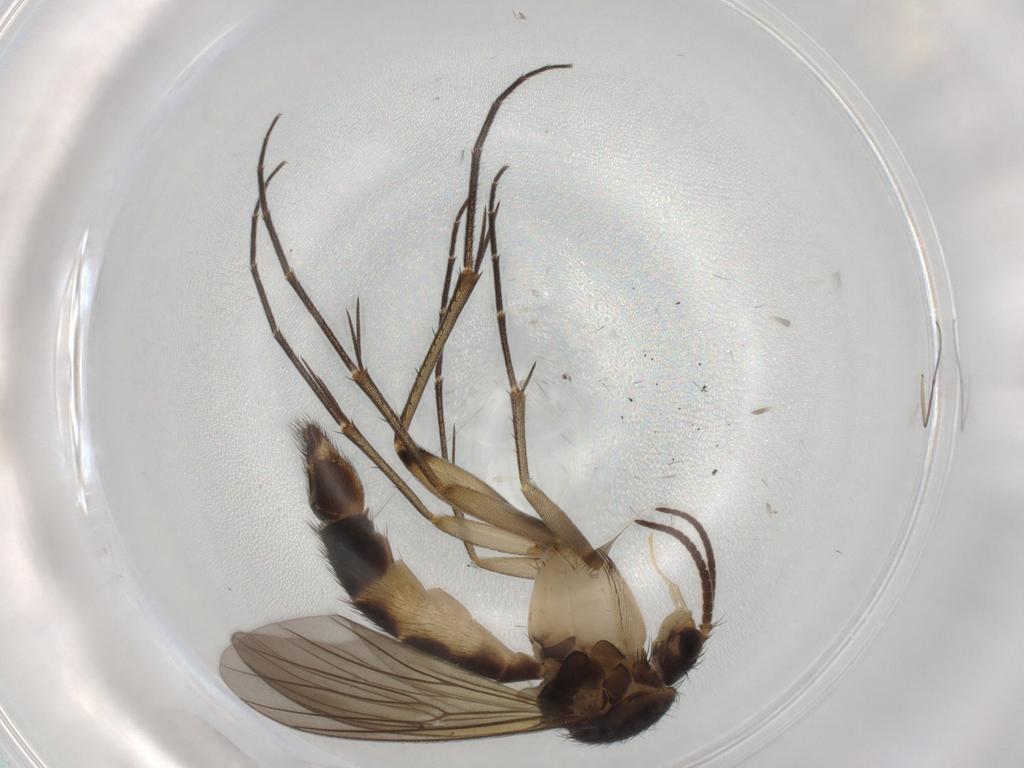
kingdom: Animalia
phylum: Arthropoda
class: Insecta
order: Diptera
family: Mycetophilidae
